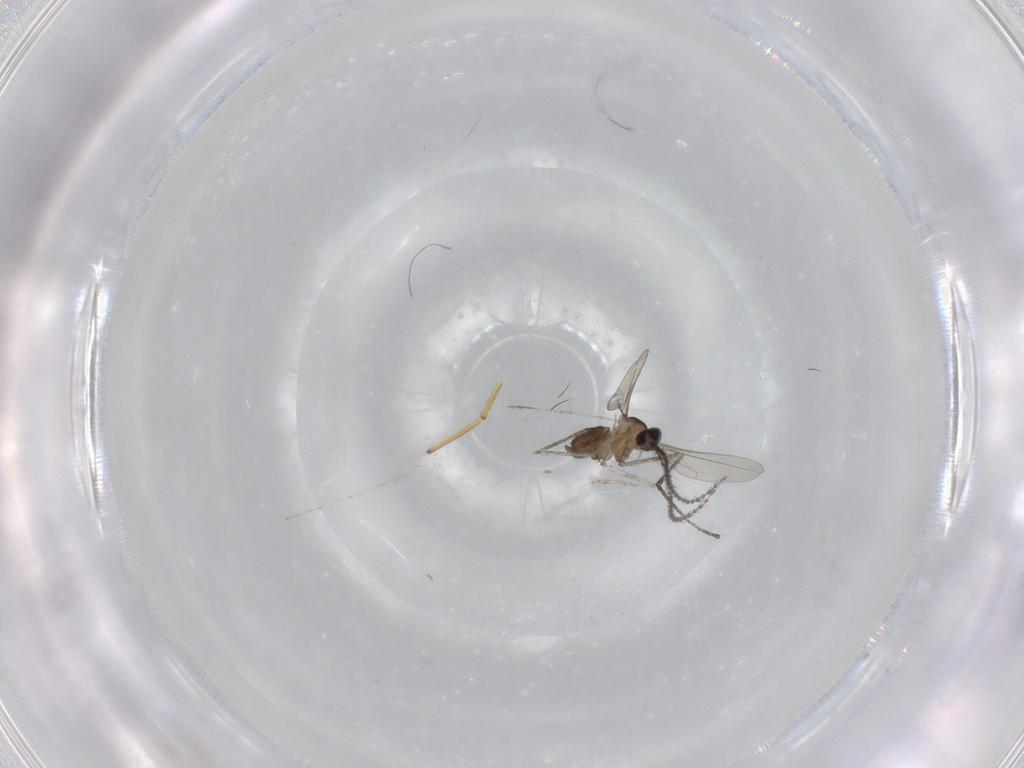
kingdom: Animalia
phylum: Arthropoda
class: Insecta
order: Diptera
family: Cecidomyiidae
